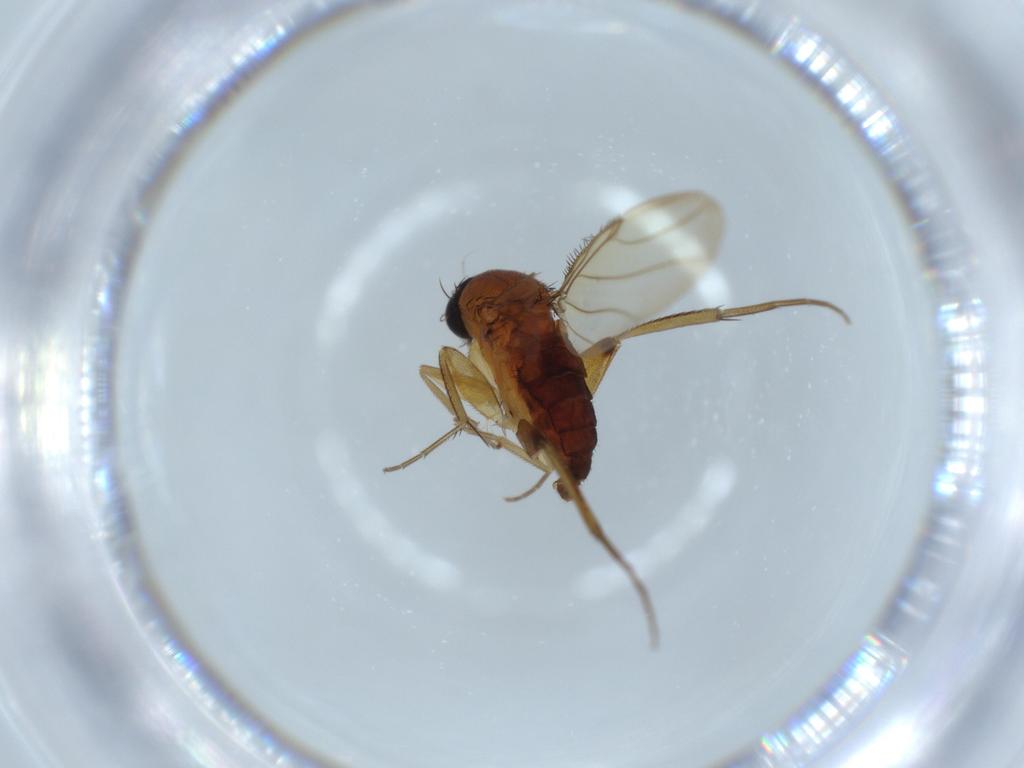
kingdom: Animalia
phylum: Arthropoda
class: Insecta
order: Diptera
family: Phoridae
